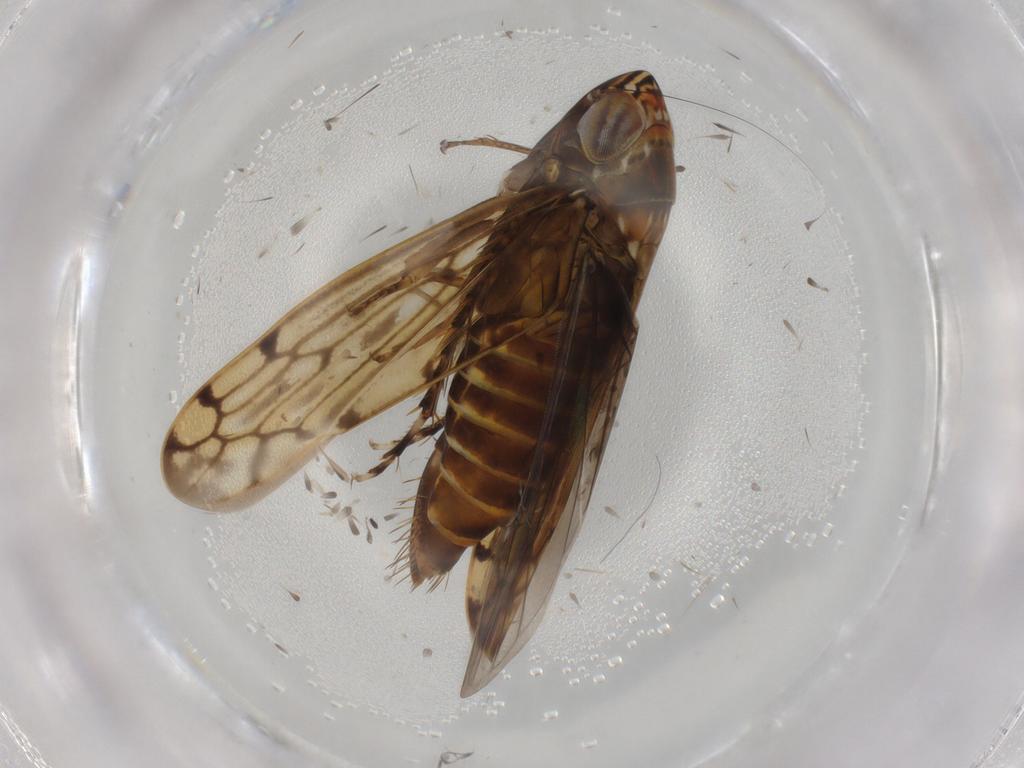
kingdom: Animalia
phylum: Arthropoda
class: Insecta
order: Hemiptera
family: Cicadellidae
